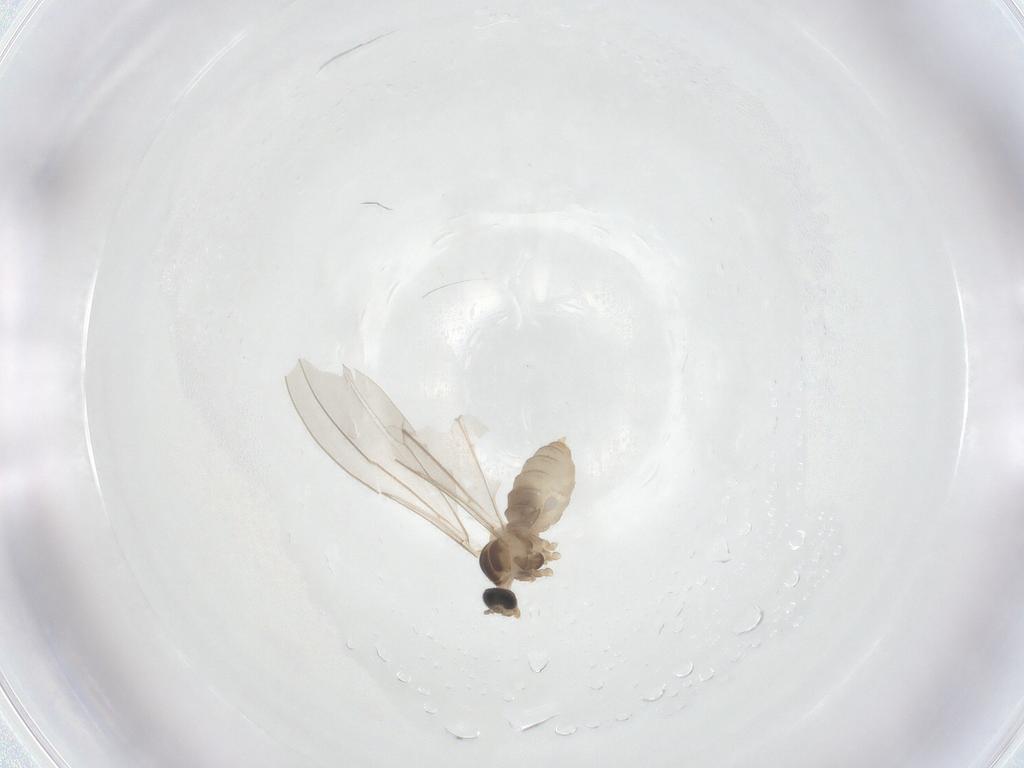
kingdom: Animalia
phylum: Arthropoda
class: Insecta
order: Diptera
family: Cecidomyiidae
